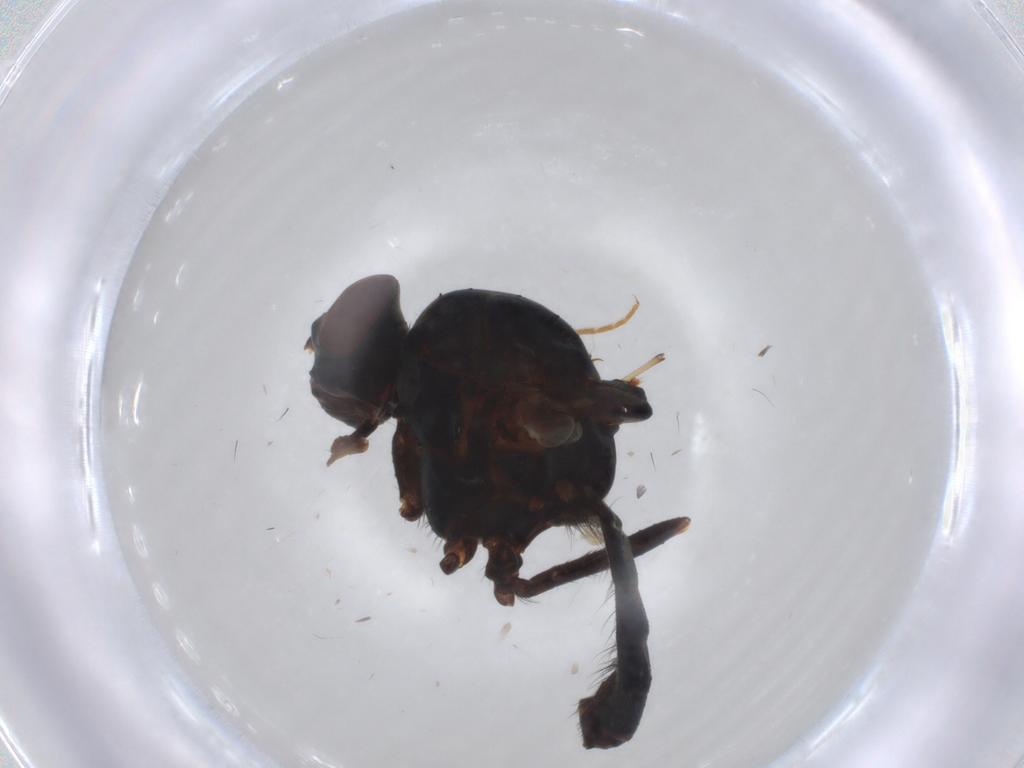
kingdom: Animalia
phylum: Arthropoda
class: Insecta
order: Diptera
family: Anthomyiidae
